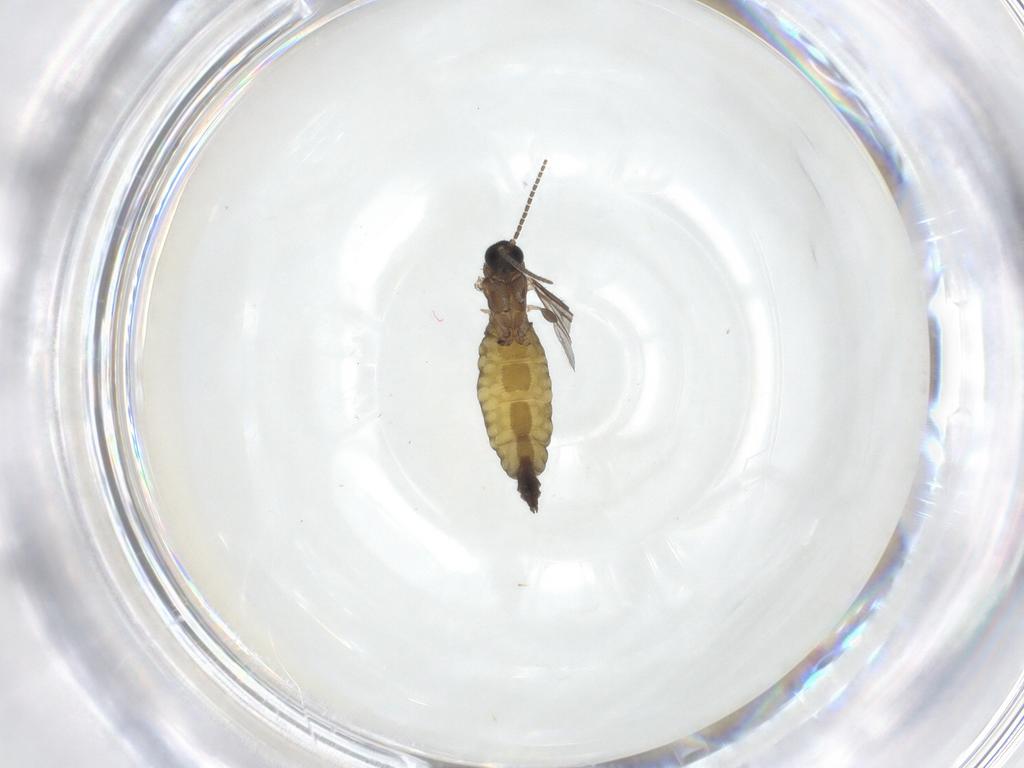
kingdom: Animalia
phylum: Arthropoda
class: Insecta
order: Diptera
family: Sciaridae
